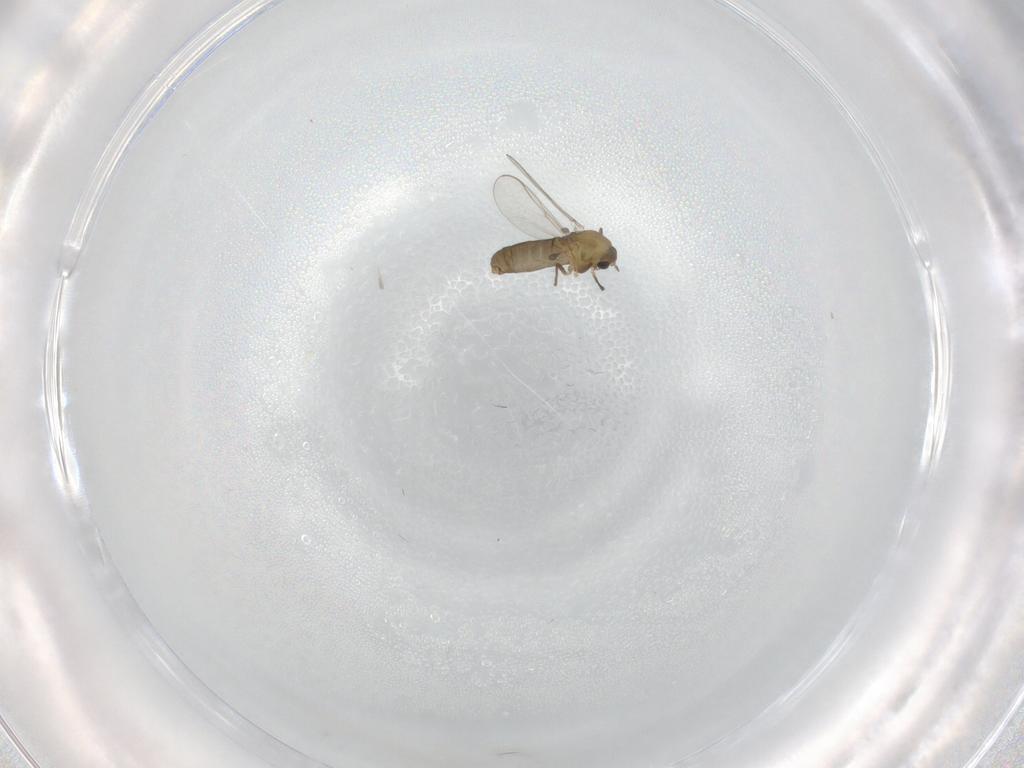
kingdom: Animalia
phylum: Arthropoda
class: Insecta
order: Diptera
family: Chironomidae
